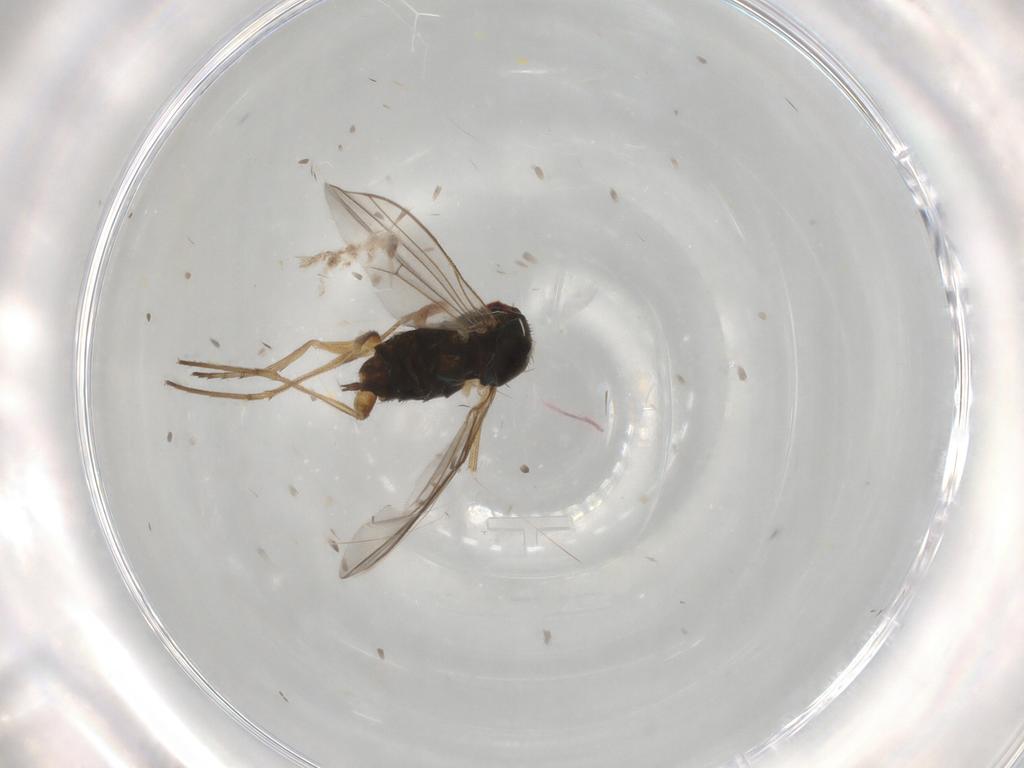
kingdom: Animalia
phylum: Arthropoda
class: Insecta
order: Diptera
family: Dolichopodidae
